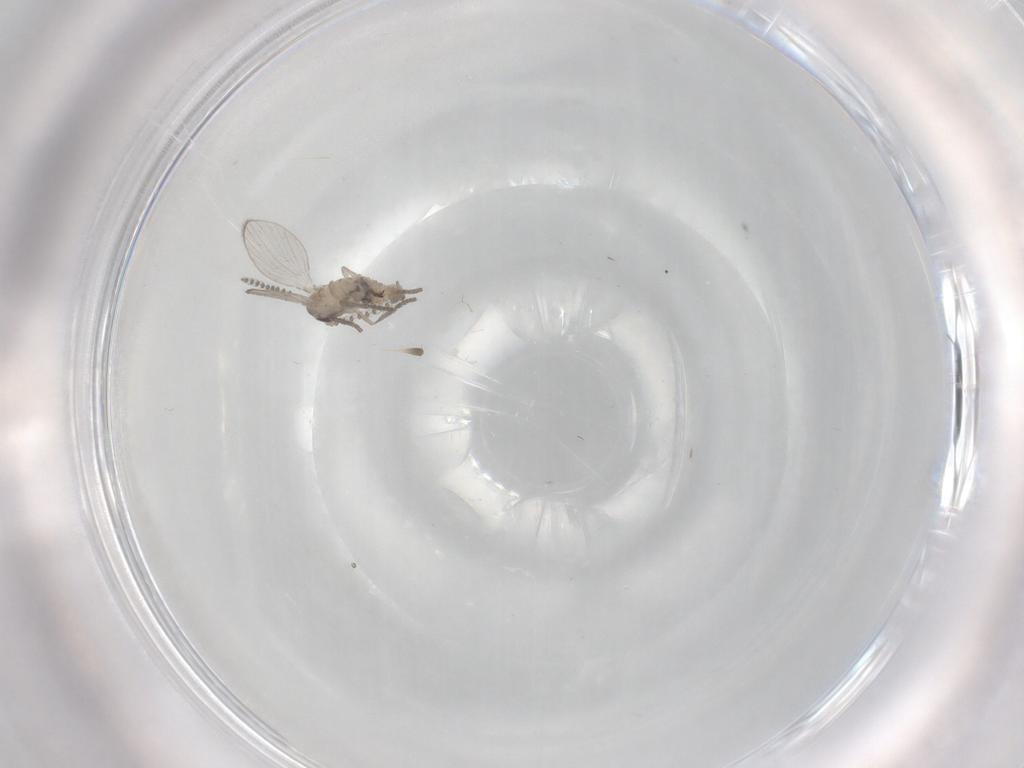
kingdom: Animalia
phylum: Arthropoda
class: Insecta
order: Diptera
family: Psychodidae
